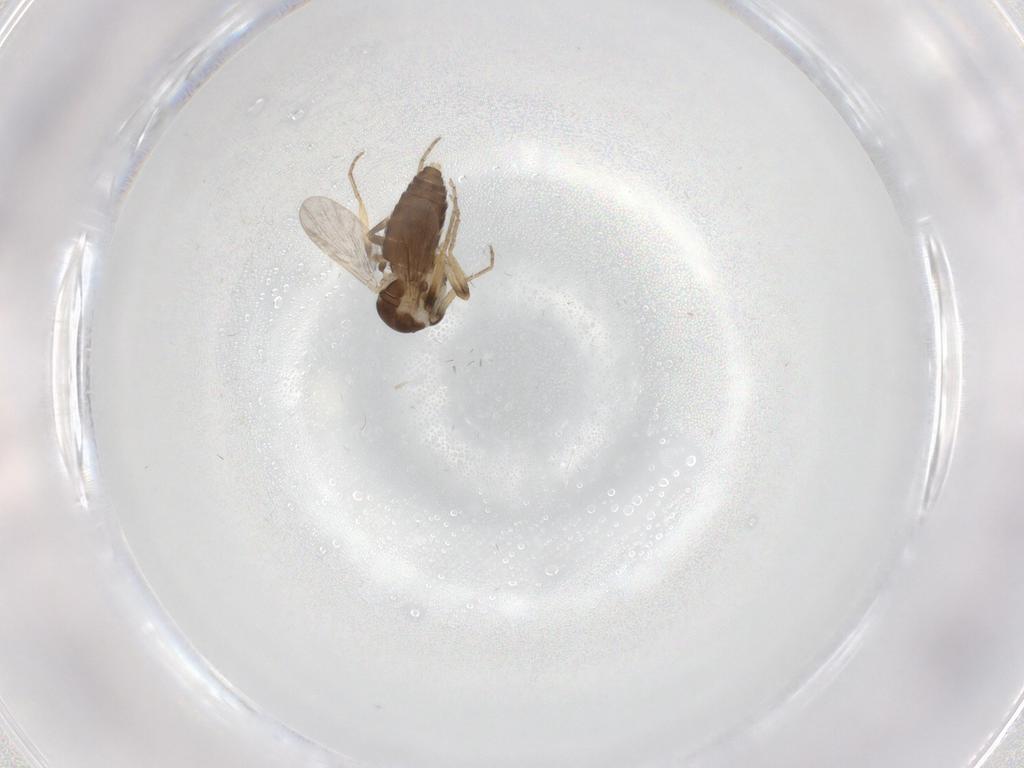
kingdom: Animalia
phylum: Arthropoda
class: Insecta
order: Diptera
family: Ceratopogonidae
